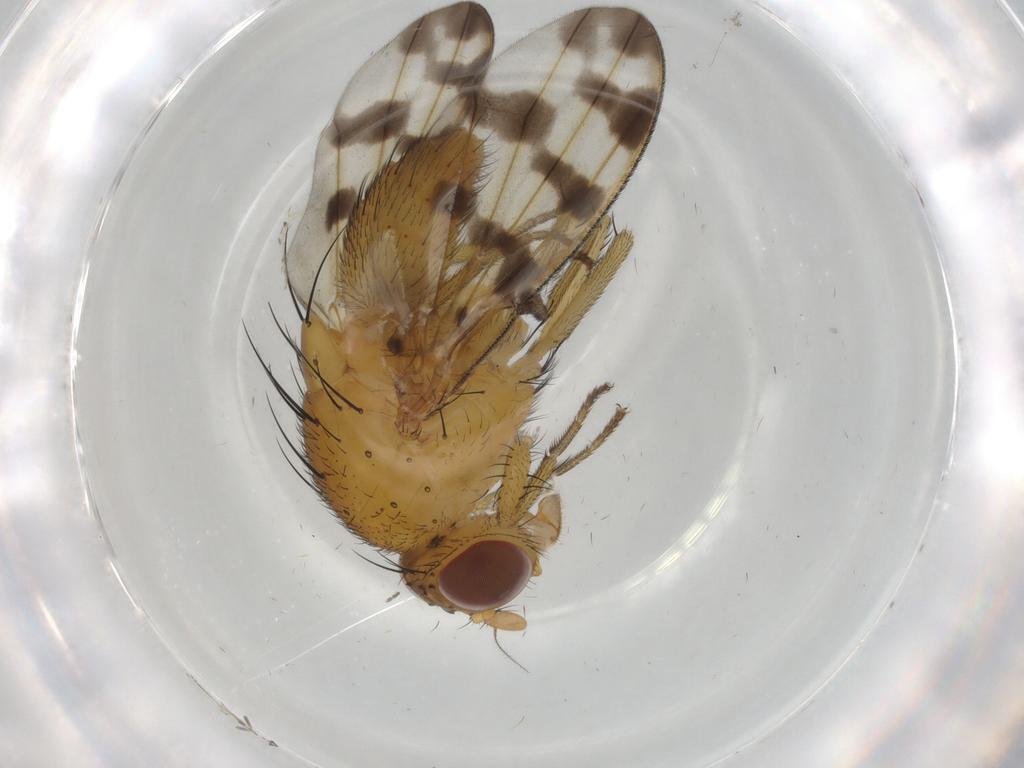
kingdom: Animalia
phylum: Arthropoda
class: Insecta
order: Diptera
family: Cecidomyiidae
